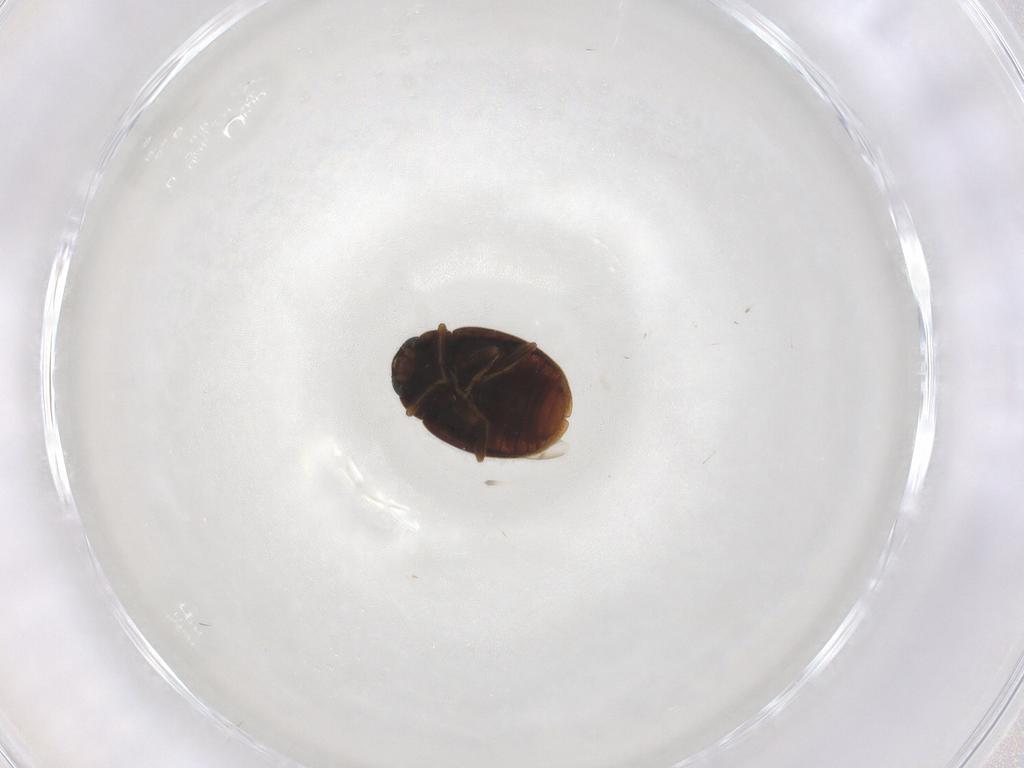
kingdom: Animalia
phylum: Arthropoda
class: Insecta
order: Coleoptera
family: Coccinellidae
